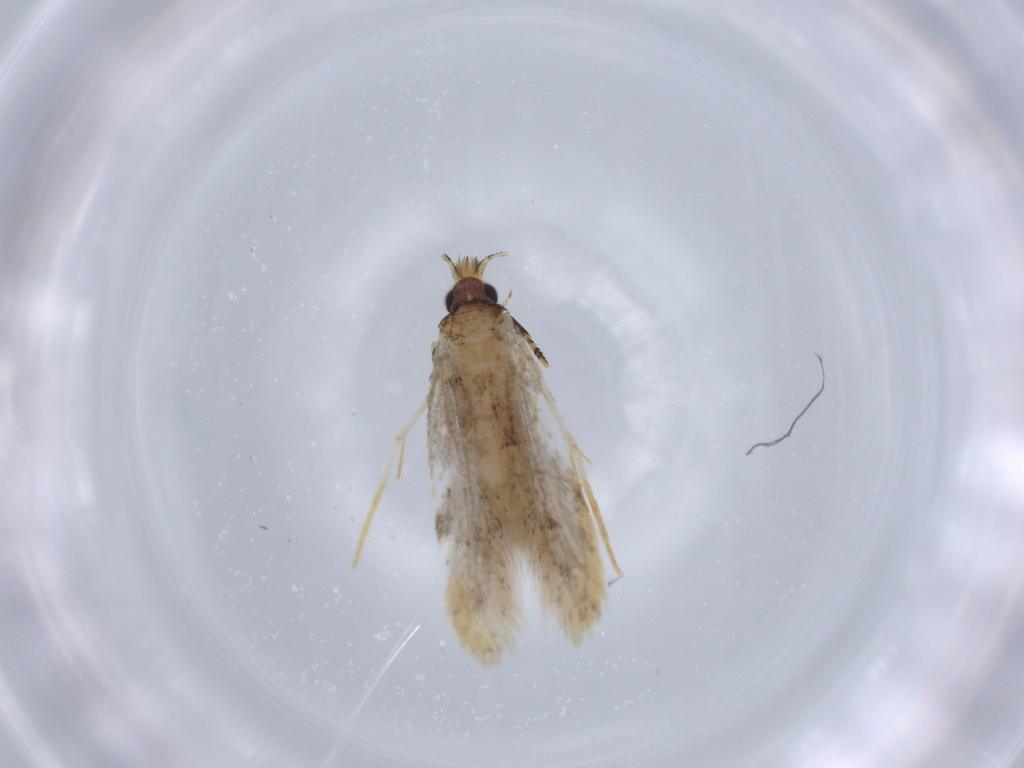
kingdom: Animalia
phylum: Arthropoda
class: Insecta
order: Lepidoptera
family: Tineidae
